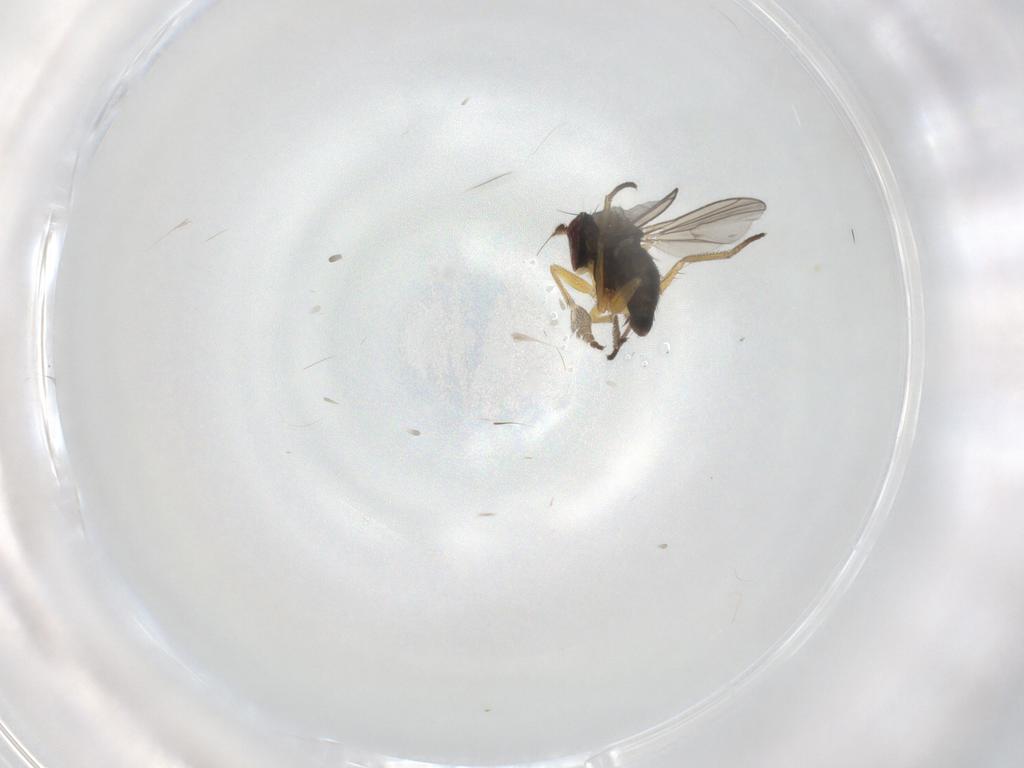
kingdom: Animalia
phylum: Arthropoda
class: Insecta
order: Diptera
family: Dolichopodidae
